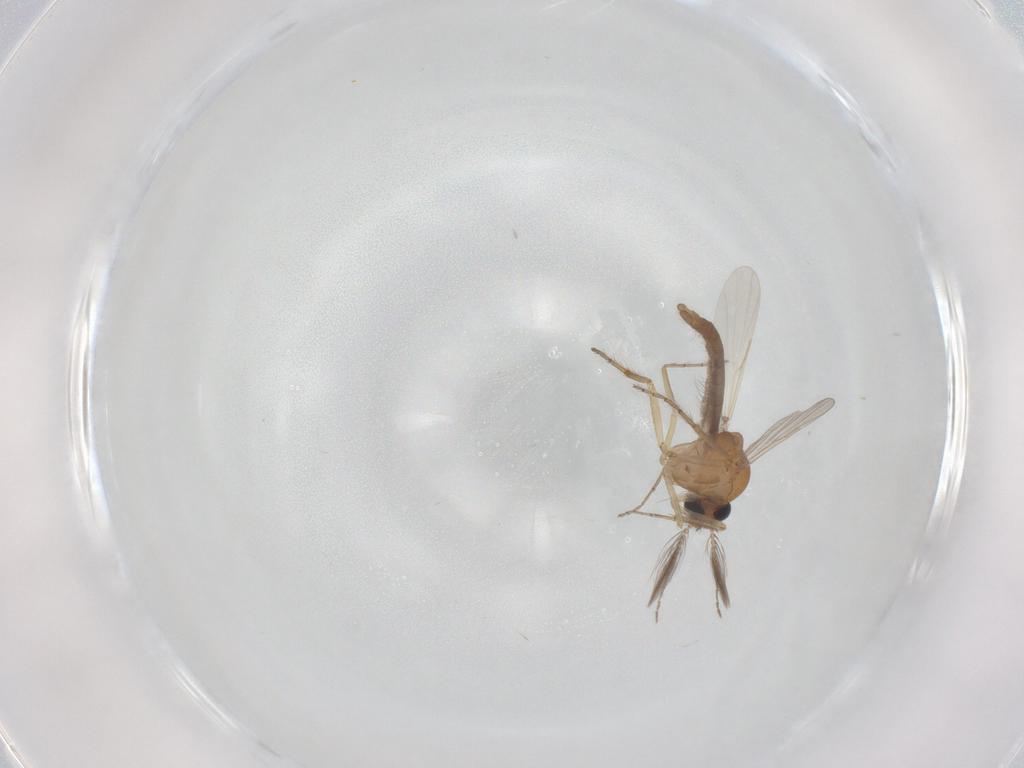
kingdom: Animalia
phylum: Arthropoda
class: Insecta
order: Diptera
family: Ceratopogonidae
